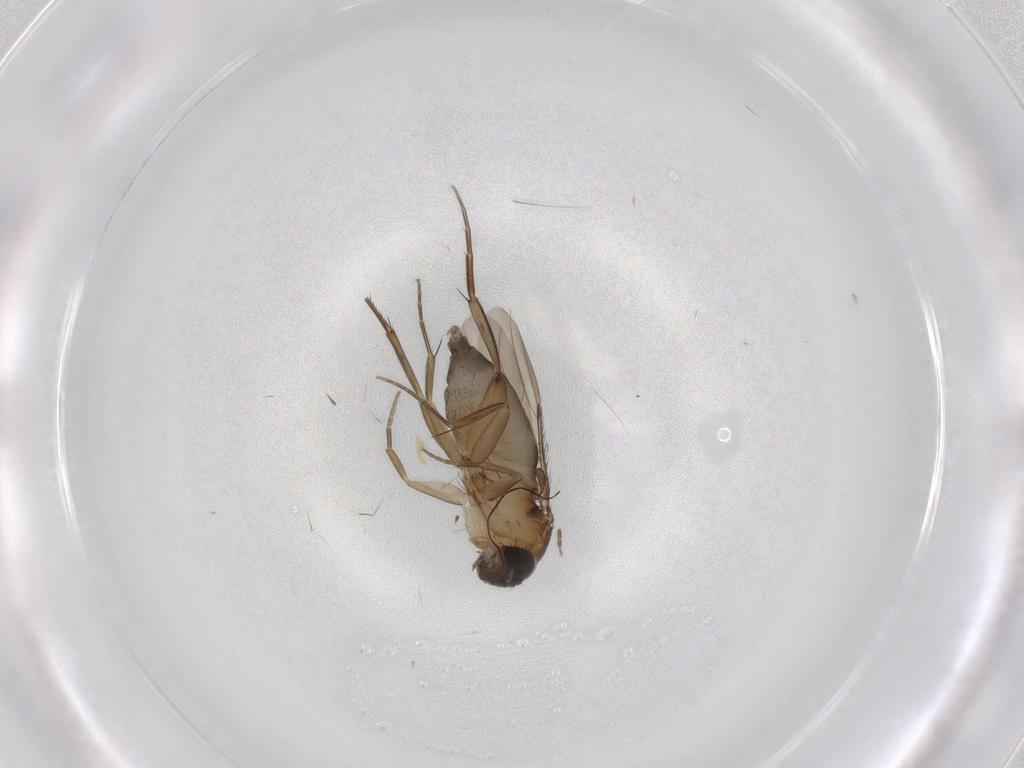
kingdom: Animalia
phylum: Arthropoda
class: Insecta
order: Diptera
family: Phoridae
